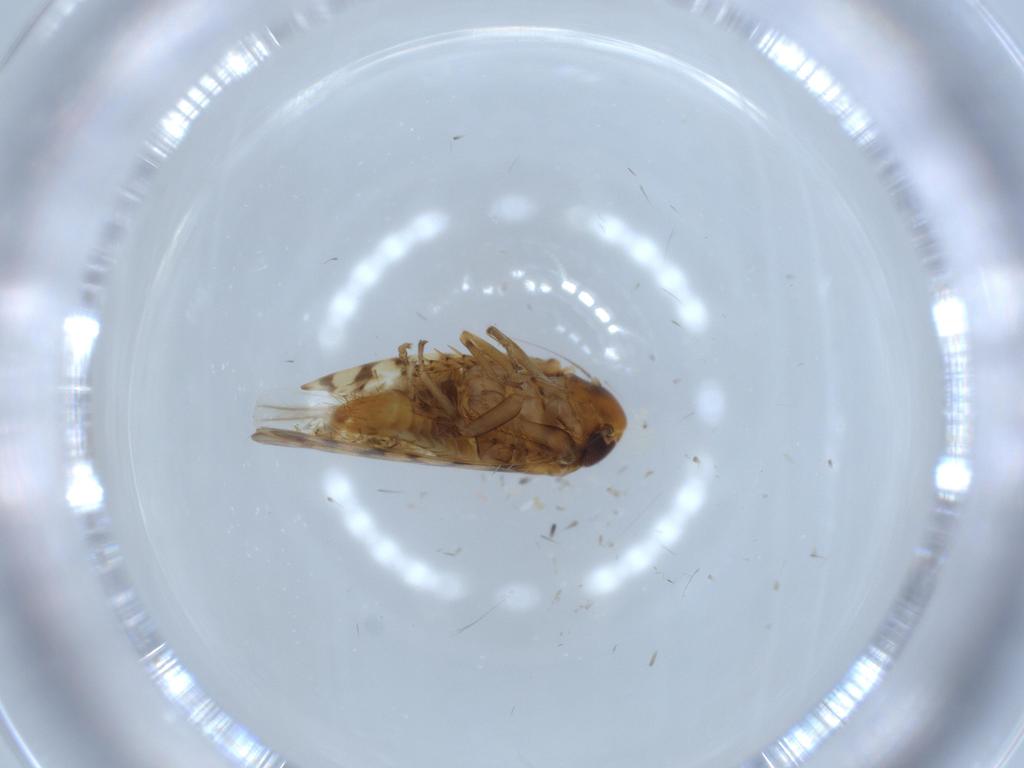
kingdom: Animalia
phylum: Arthropoda
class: Insecta
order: Hemiptera
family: Cicadellidae
